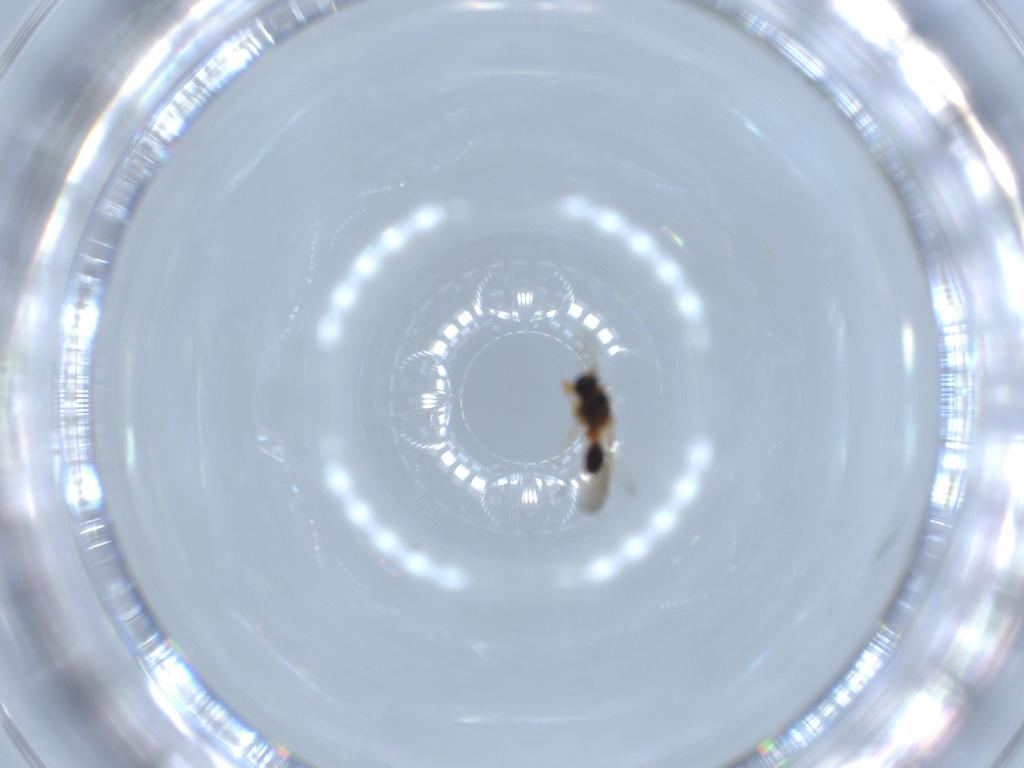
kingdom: Animalia
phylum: Arthropoda
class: Insecta
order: Hymenoptera
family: Platygastridae
